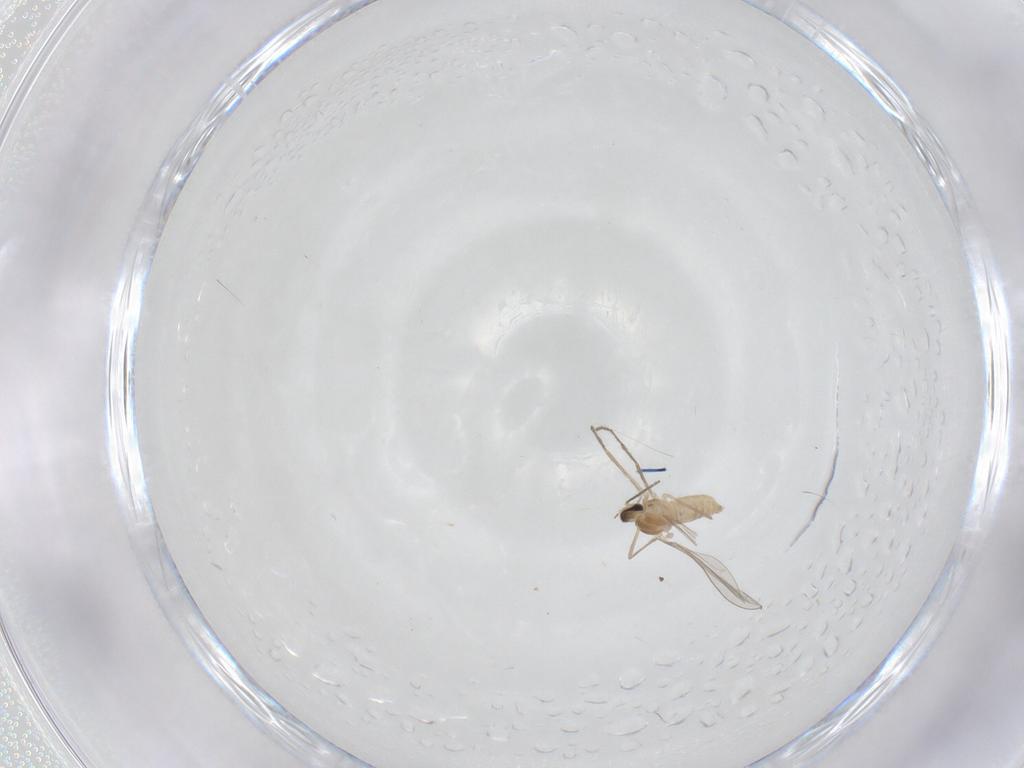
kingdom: Animalia
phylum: Arthropoda
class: Insecta
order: Diptera
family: Cecidomyiidae
